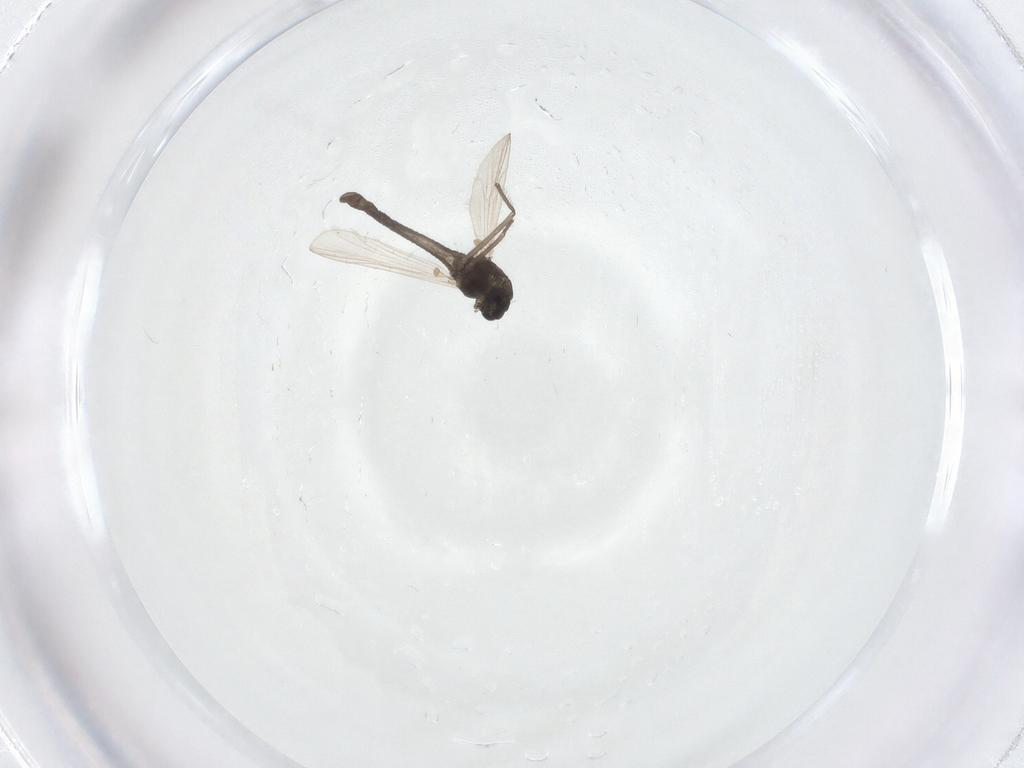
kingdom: Animalia
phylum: Arthropoda
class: Insecta
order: Diptera
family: Chironomidae
